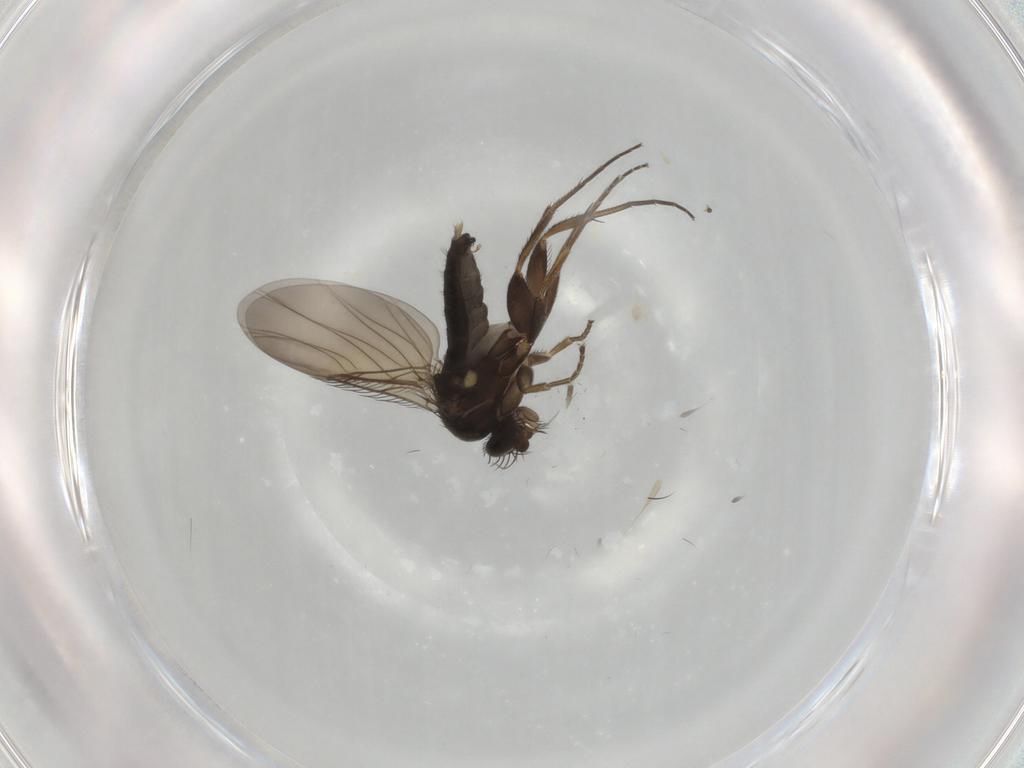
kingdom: Animalia
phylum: Arthropoda
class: Insecta
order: Diptera
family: Phoridae
